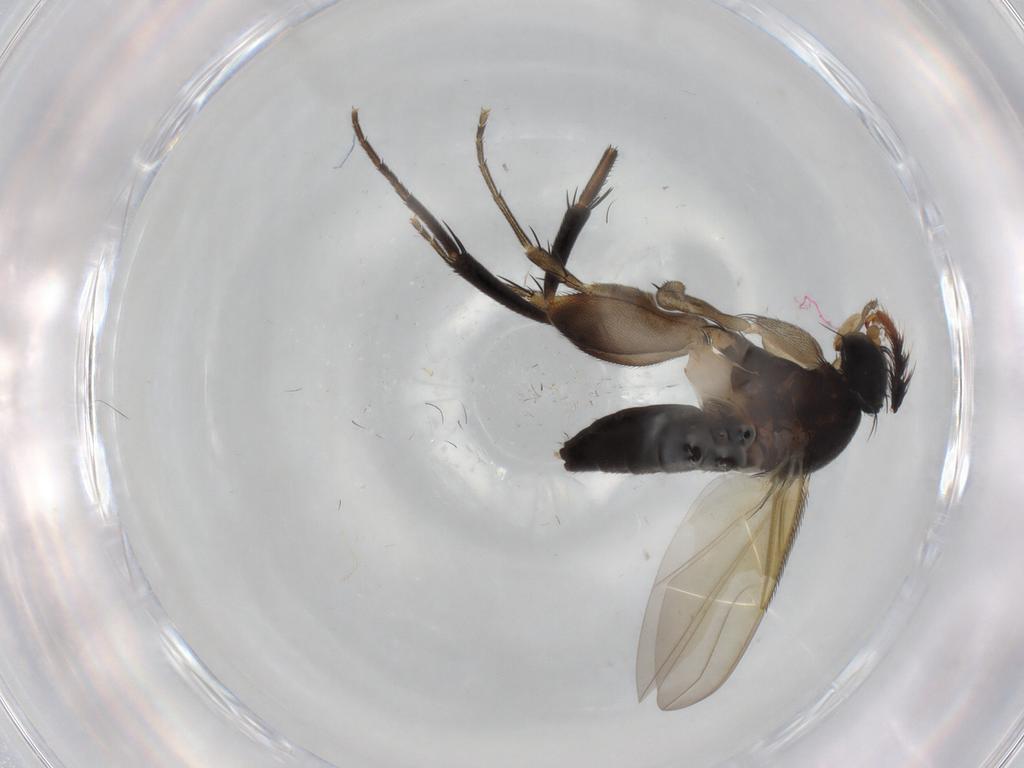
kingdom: Animalia
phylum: Arthropoda
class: Insecta
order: Diptera
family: Phoridae
